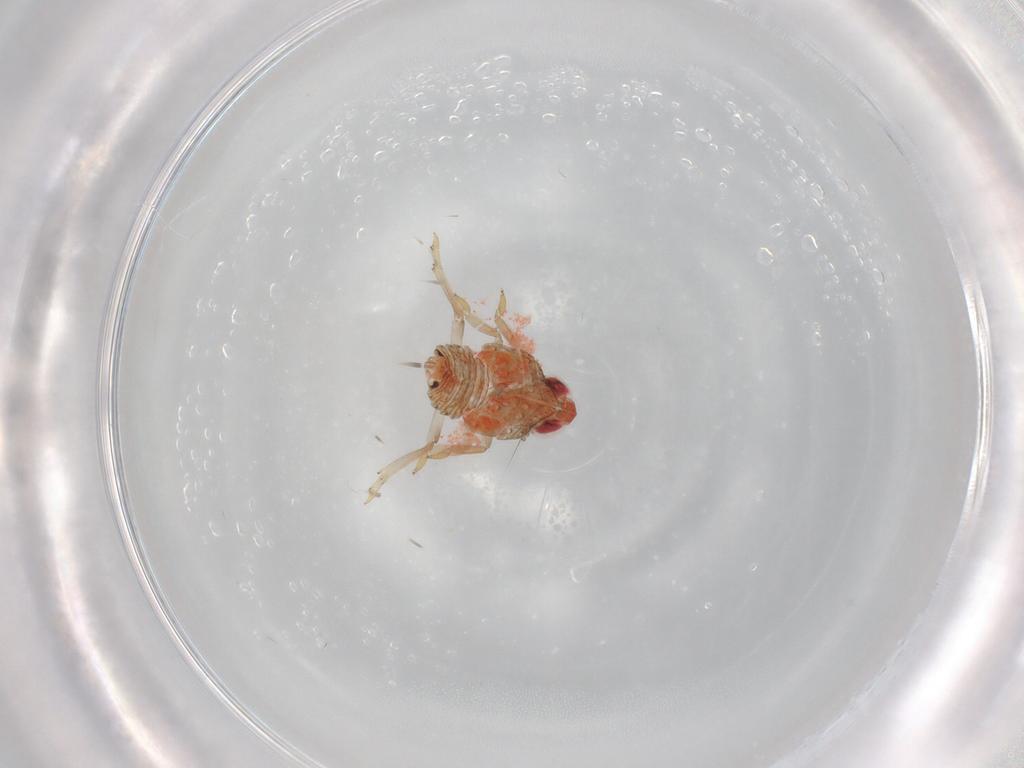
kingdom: Animalia
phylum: Arthropoda
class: Insecta
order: Hemiptera
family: Issidae
